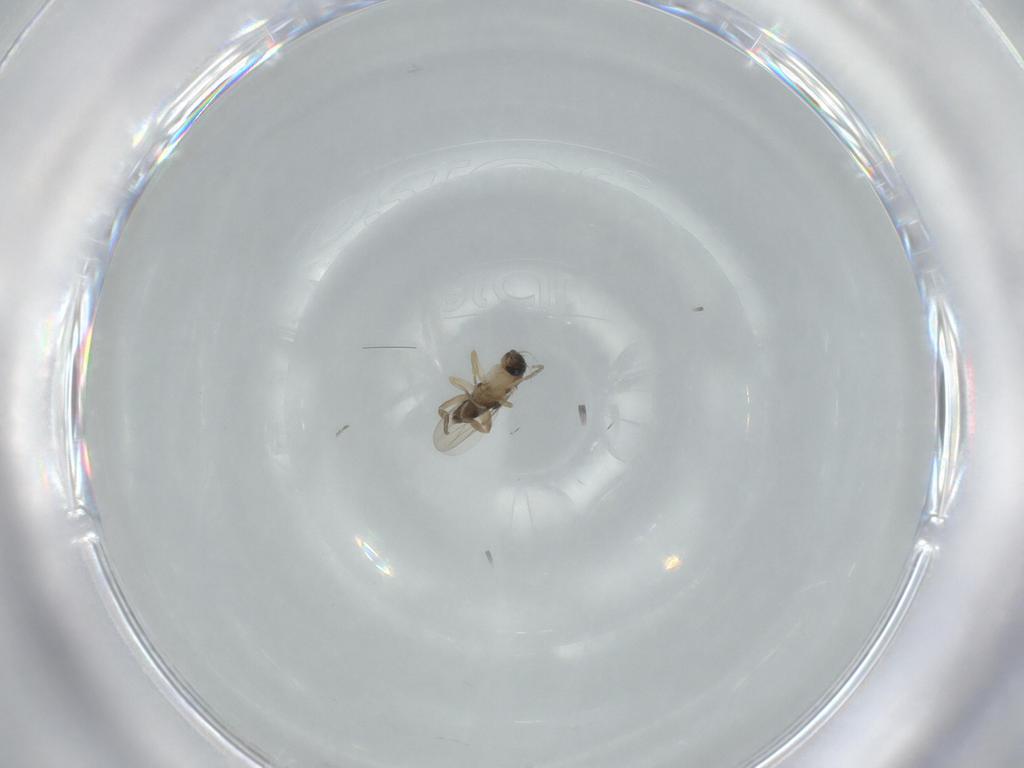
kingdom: Animalia
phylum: Arthropoda
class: Insecta
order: Diptera
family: Phoridae
